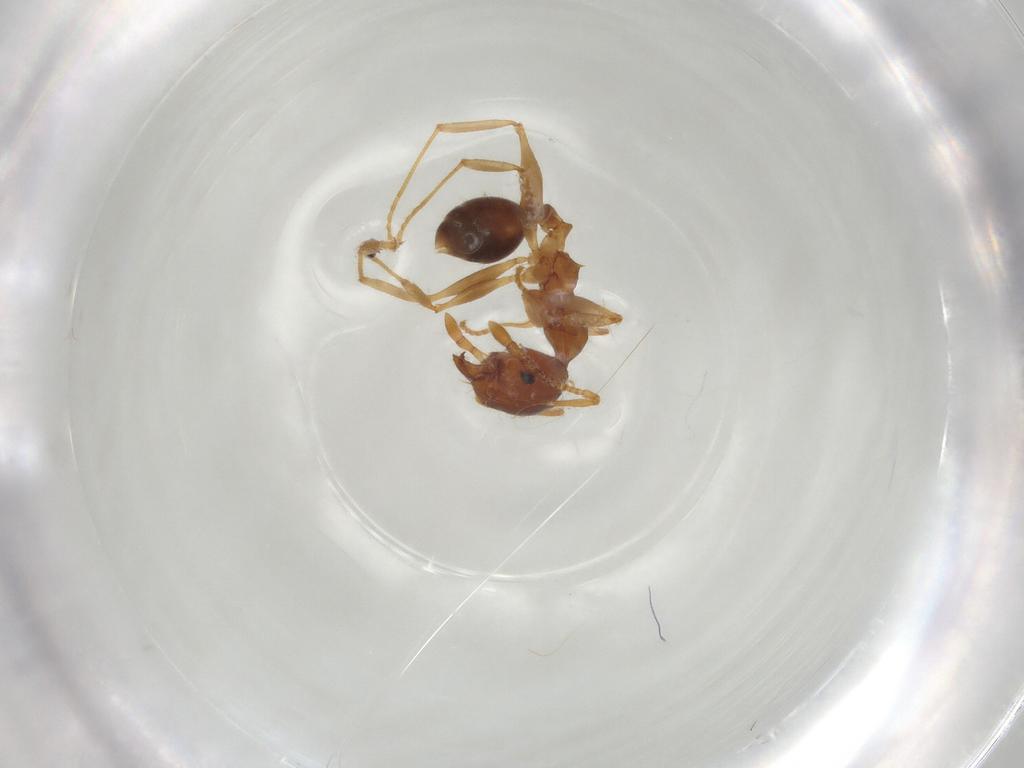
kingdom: Animalia
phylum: Arthropoda
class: Insecta
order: Hymenoptera
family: Formicidae
